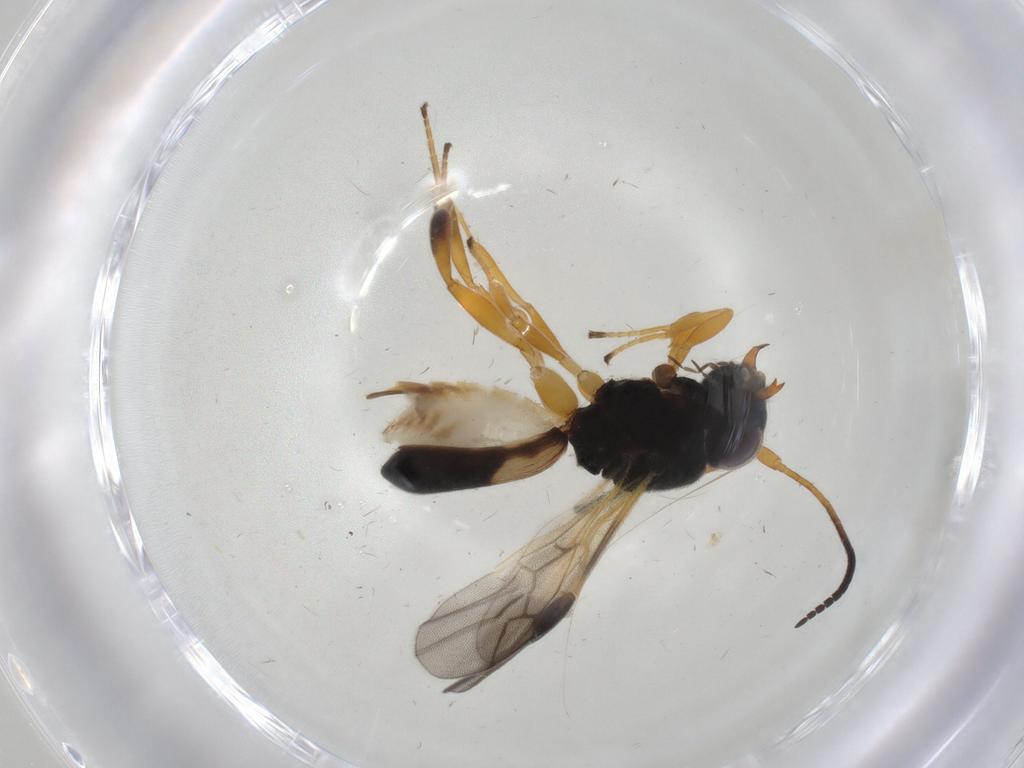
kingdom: Animalia
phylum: Arthropoda
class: Insecta
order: Hymenoptera
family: Braconidae
